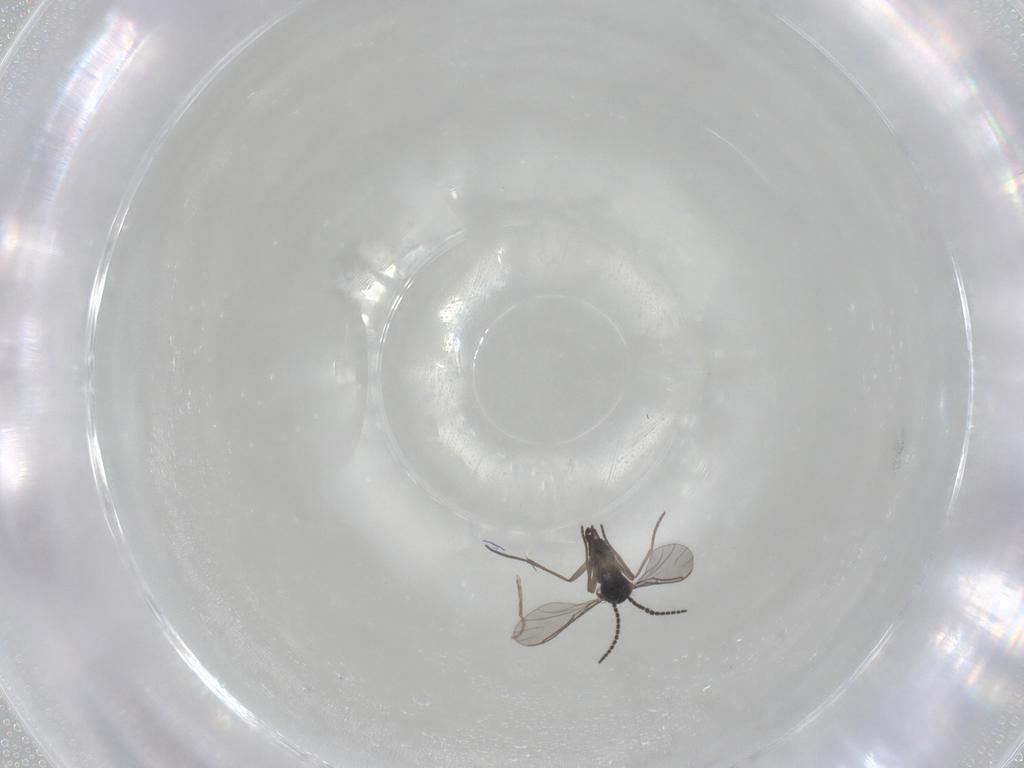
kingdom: Animalia
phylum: Arthropoda
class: Insecta
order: Diptera
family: Sciaridae
